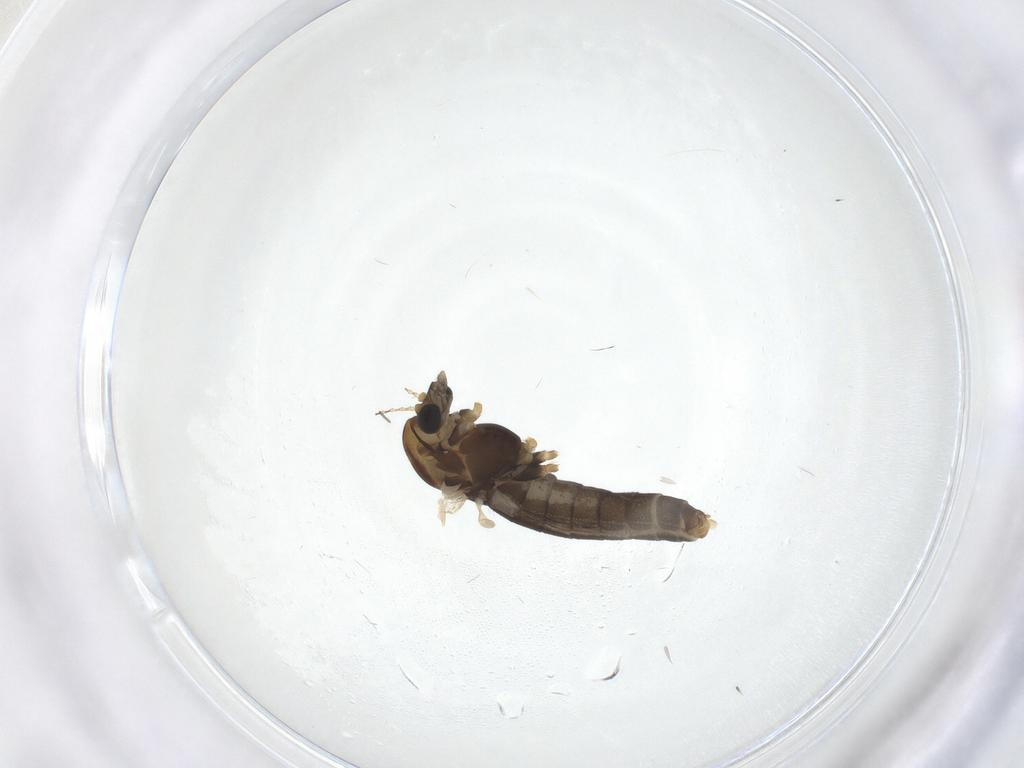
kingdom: Animalia
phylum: Arthropoda
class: Insecta
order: Diptera
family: Chironomidae
